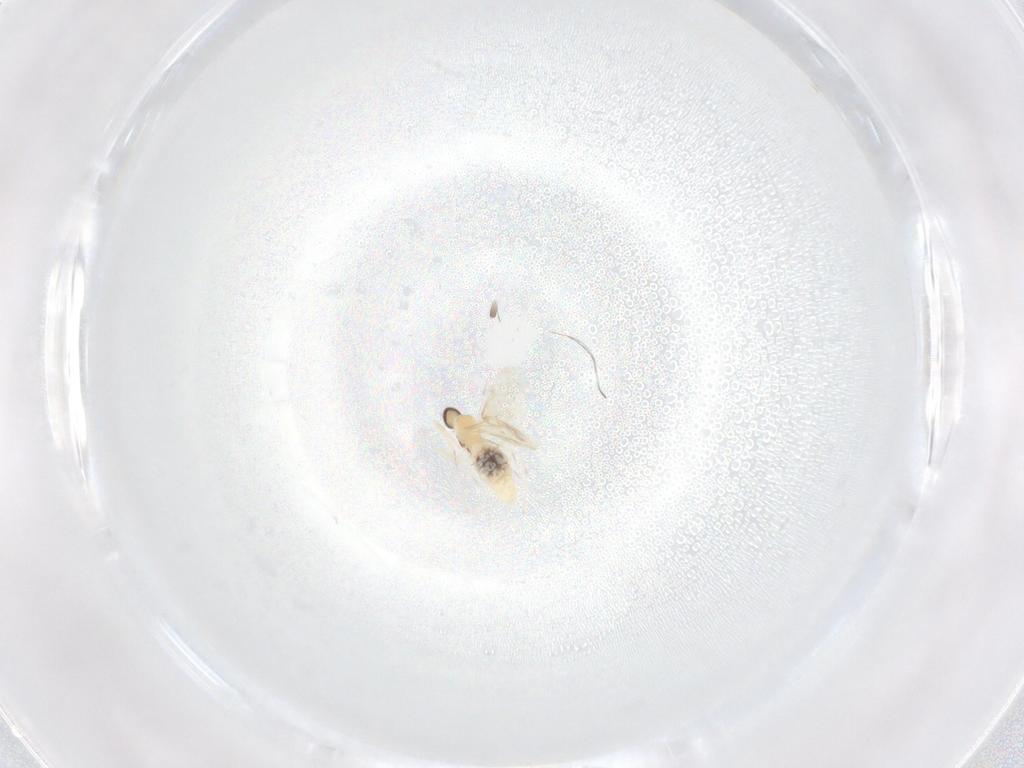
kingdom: Animalia
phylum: Arthropoda
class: Insecta
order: Diptera
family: Cecidomyiidae
